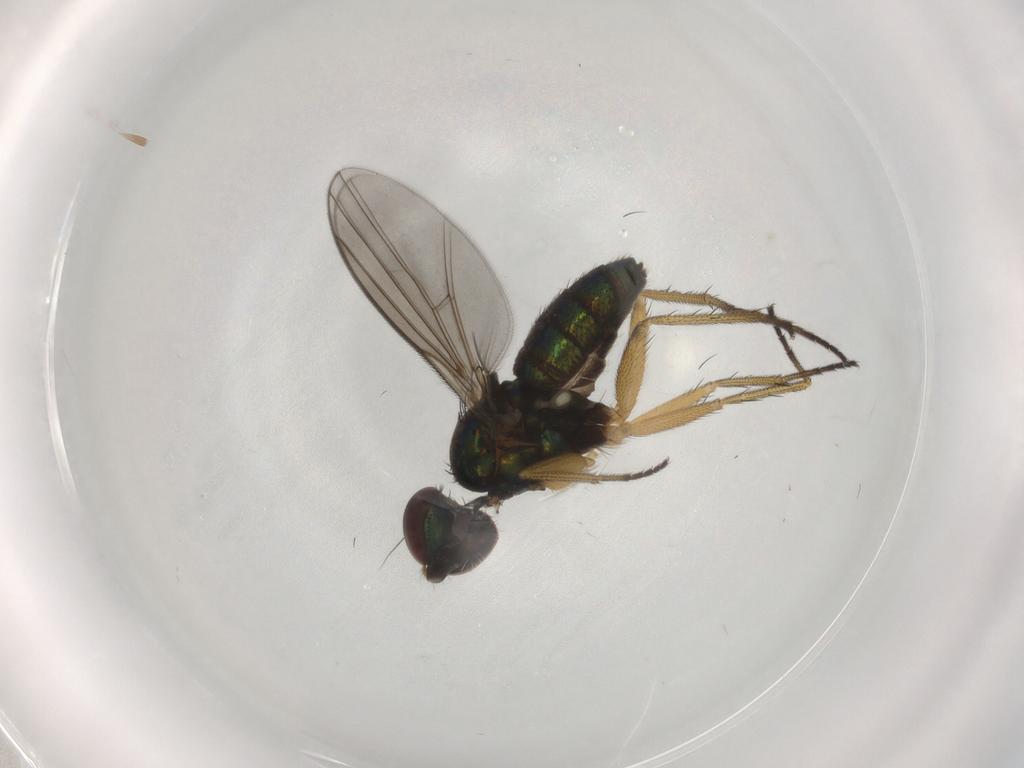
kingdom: Animalia
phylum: Arthropoda
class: Insecta
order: Diptera
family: Dolichopodidae
